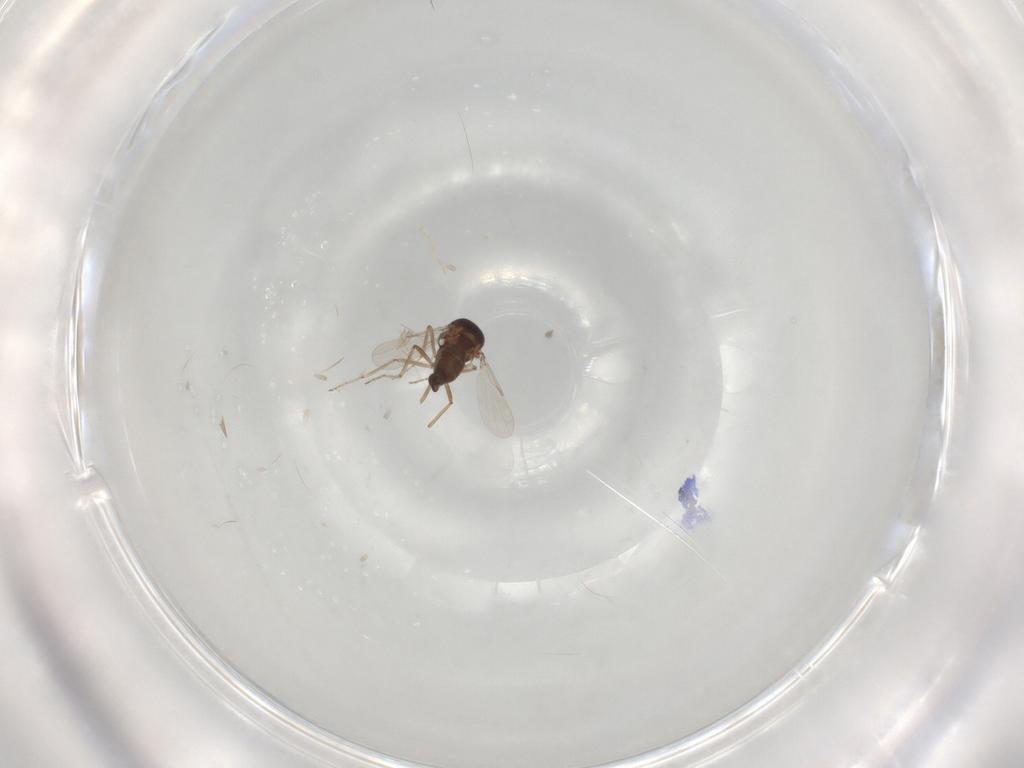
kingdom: Animalia
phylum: Arthropoda
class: Insecta
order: Diptera
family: Ceratopogonidae
